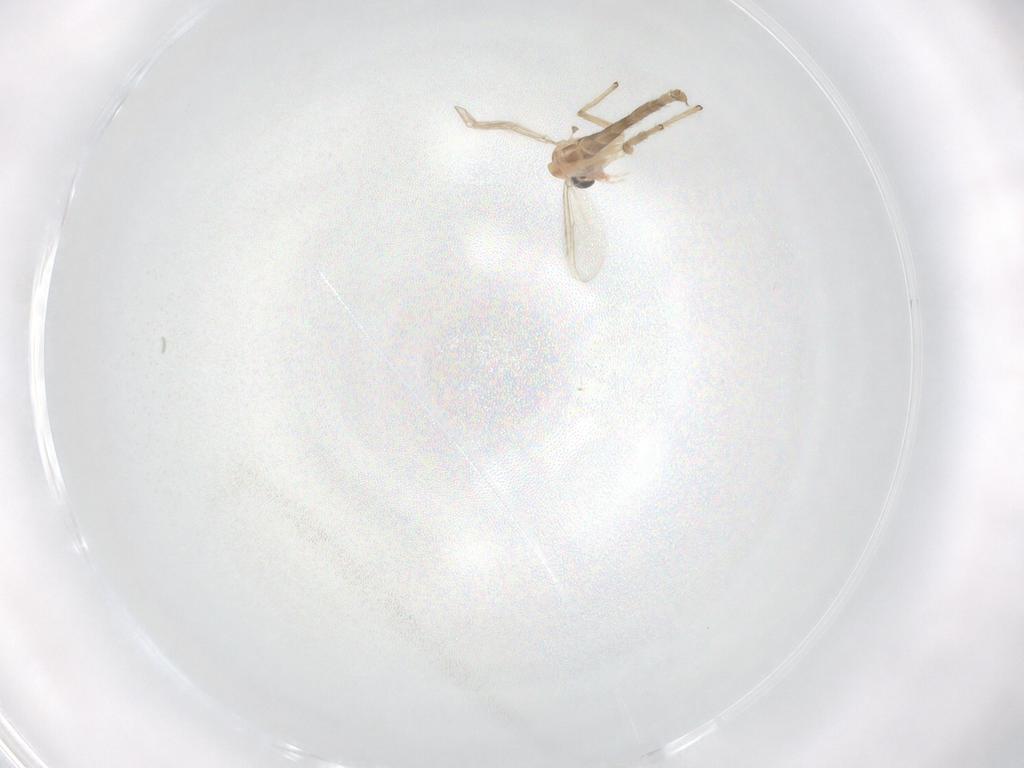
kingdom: Animalia
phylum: Arthropoda
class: Insecta
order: Diptera
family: Chironomidae
